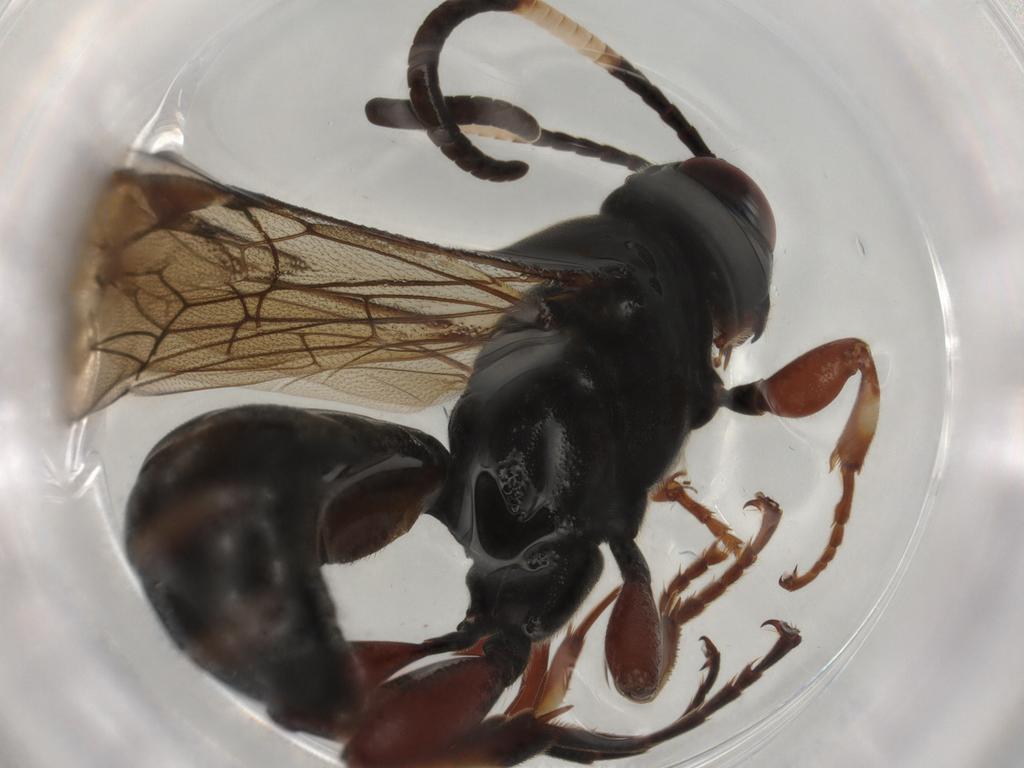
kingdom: Animalia
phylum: Arthropoda
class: Insecta
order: Hymenoptera
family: Ichneumonidae
